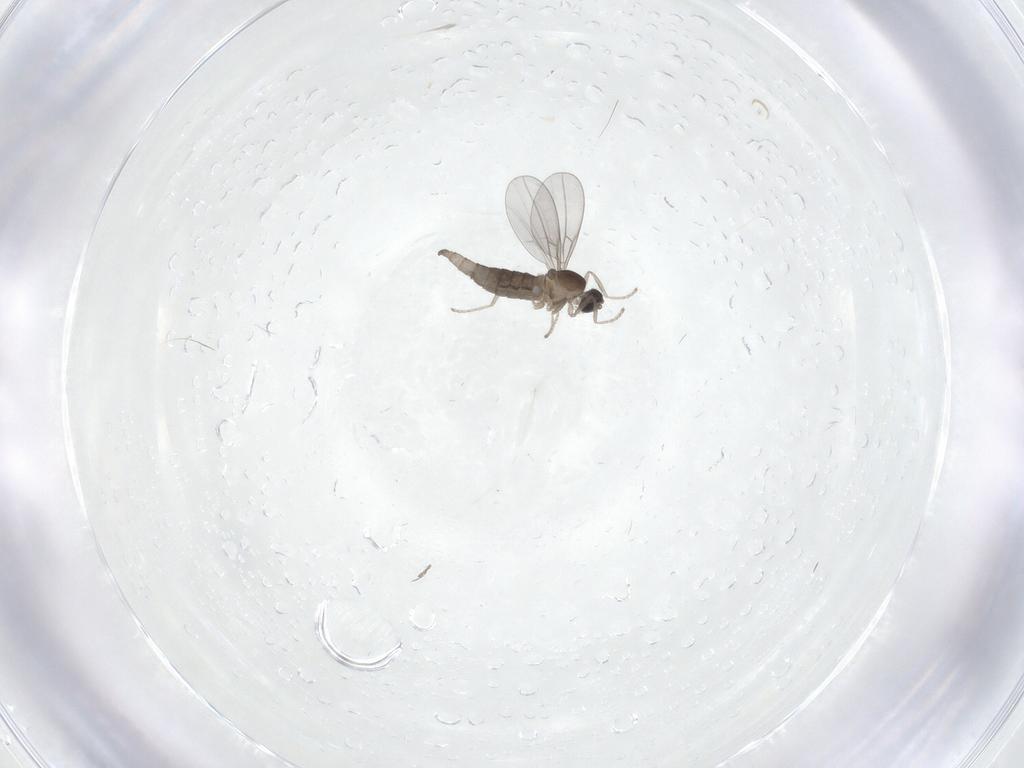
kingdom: Animalia
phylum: Arthropoda
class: Insecta
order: Diptera
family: Cecidomyiidae
